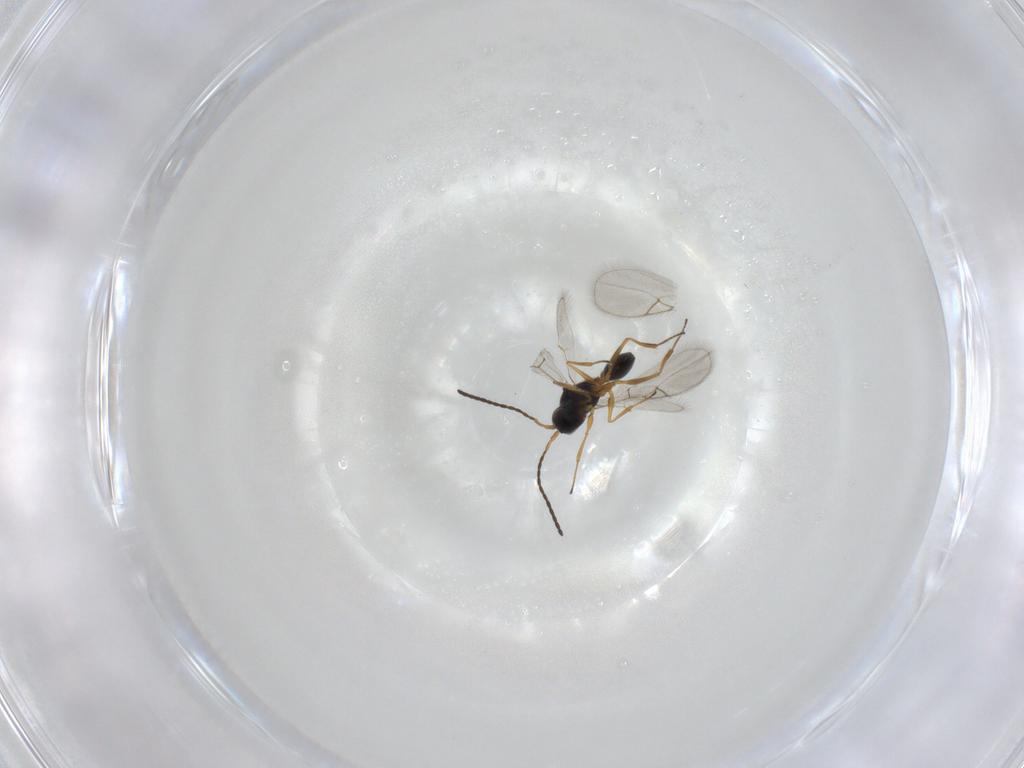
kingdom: Animalia
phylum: Arthropoda
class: Insecta
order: Hymenoptera
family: Figitidae
